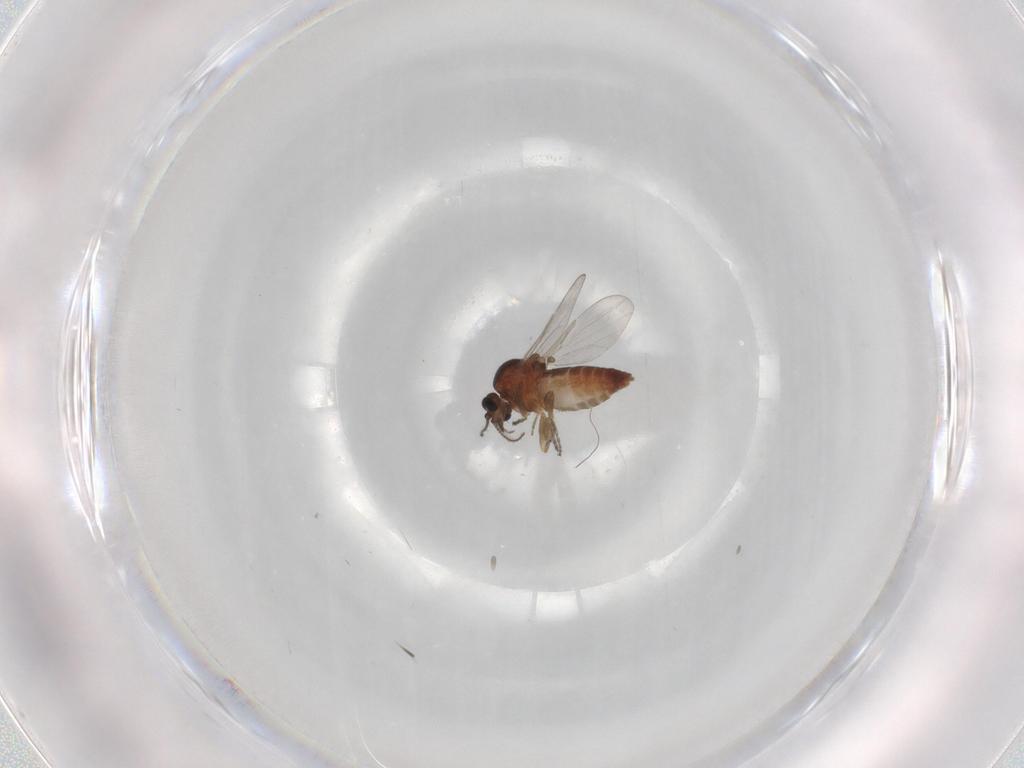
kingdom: Animalia
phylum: Arthropoda
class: Insecta
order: Diptera
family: Ceratopogonidae
